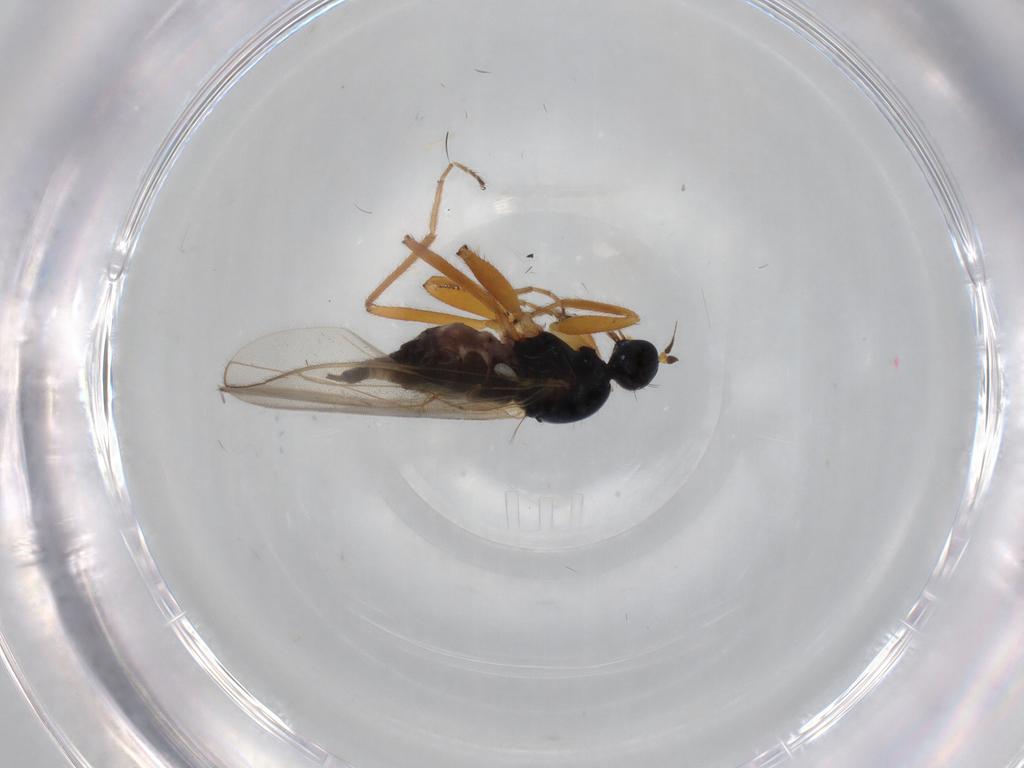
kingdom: Animalia
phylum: Arthropoda
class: Insecta
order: Diptera
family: Hybotidae
